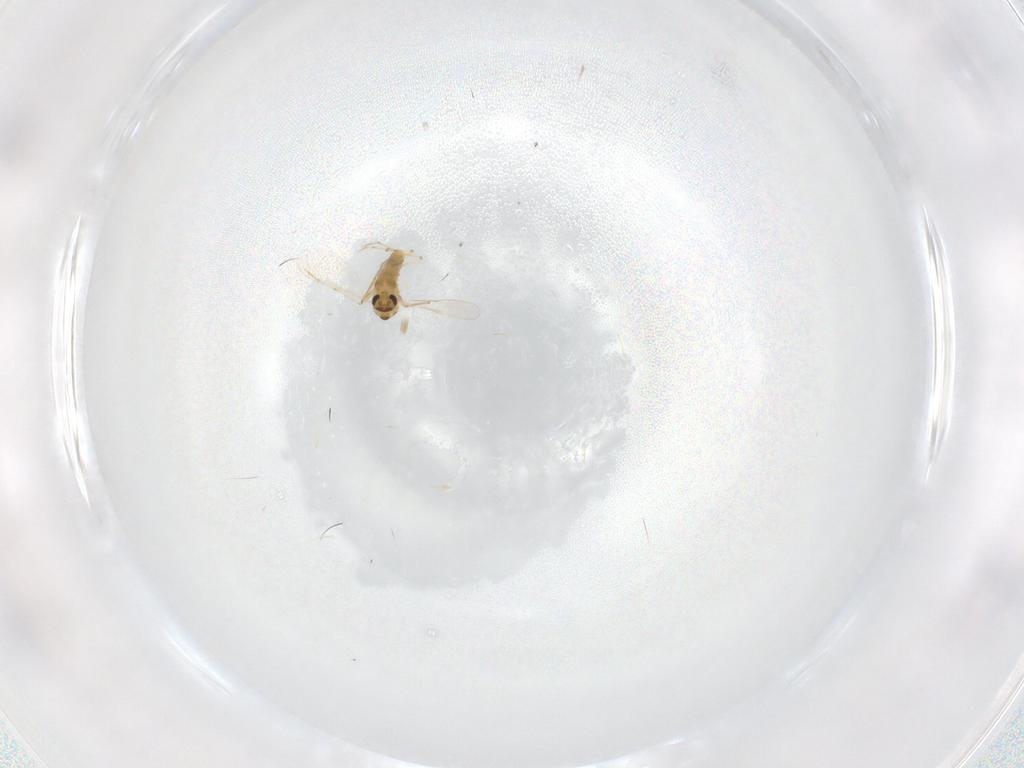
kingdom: Animalia
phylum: Arthropoda
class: Insecta
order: Diptera
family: Chironomidae
